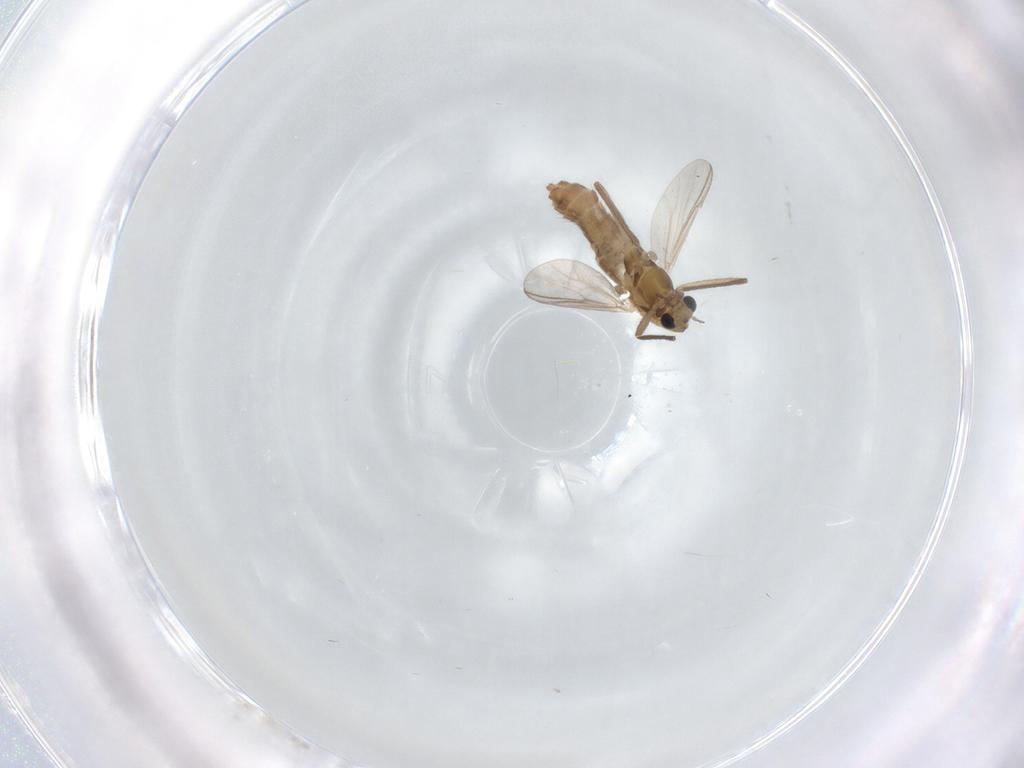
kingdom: Animalia
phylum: Arthropoda
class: Insecta
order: Diptera
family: Chironomidae
